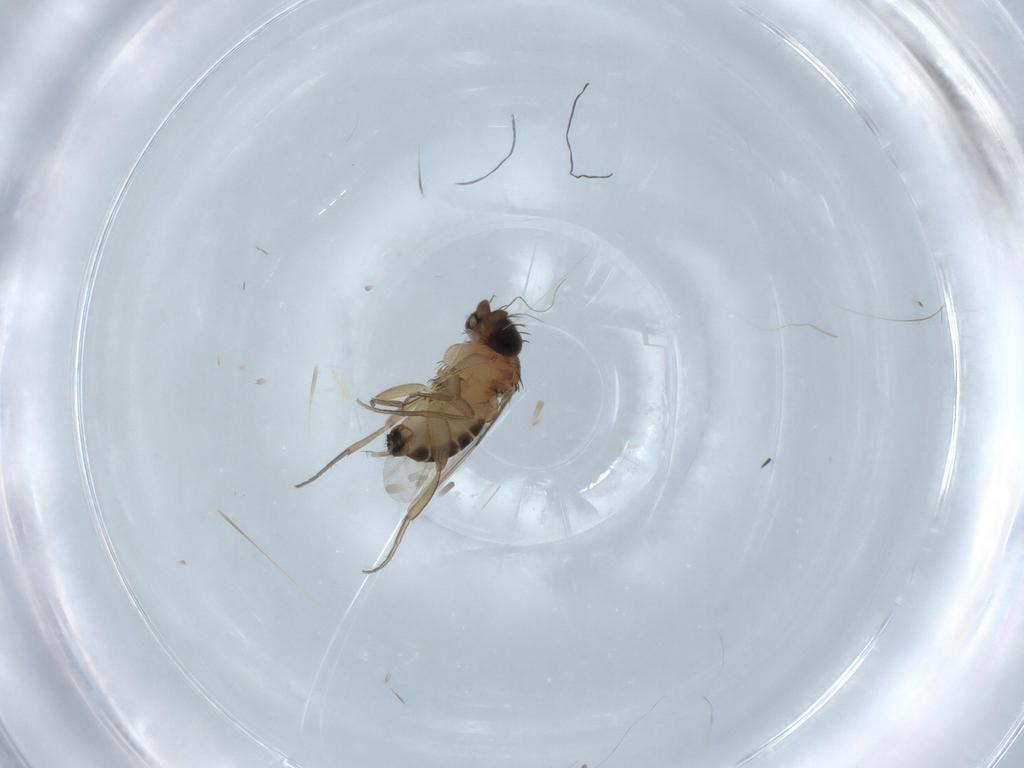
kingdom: Animalia
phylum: Arthropoda
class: Insecta
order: Diptera
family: Phoridae
